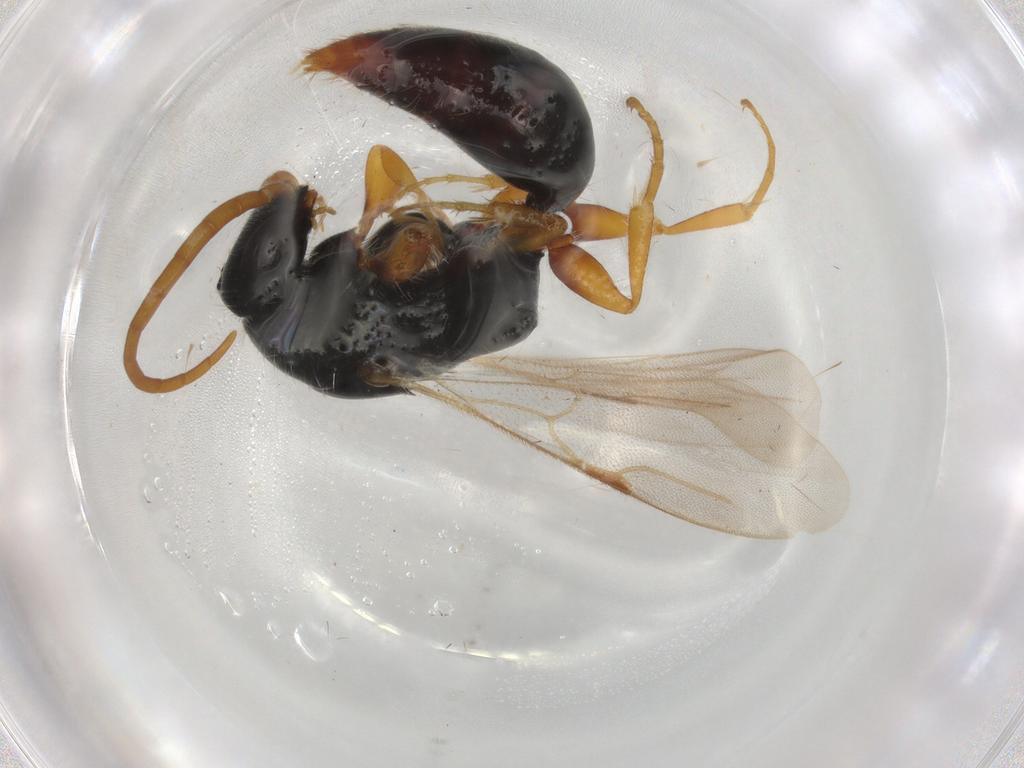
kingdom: Animalia
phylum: Arthropoda
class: Insecta
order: Hymenoptera
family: Bethylidae
